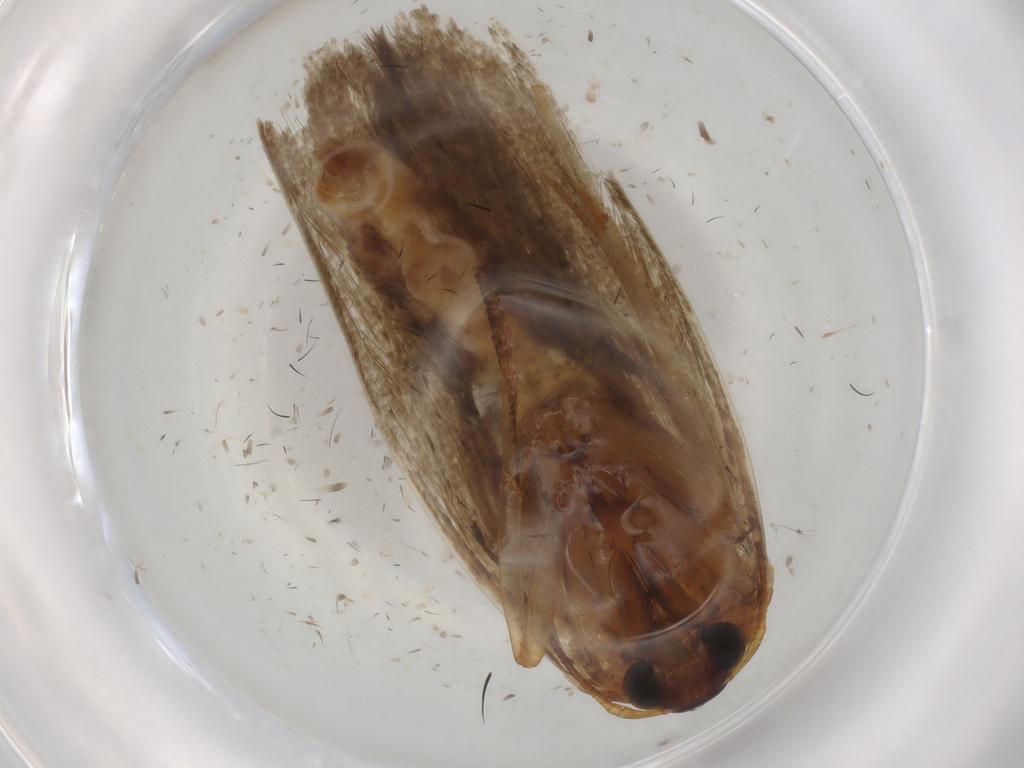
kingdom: Animalia
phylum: Arthropoda
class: Insecta
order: Lepidoptera
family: Blastobasidae
